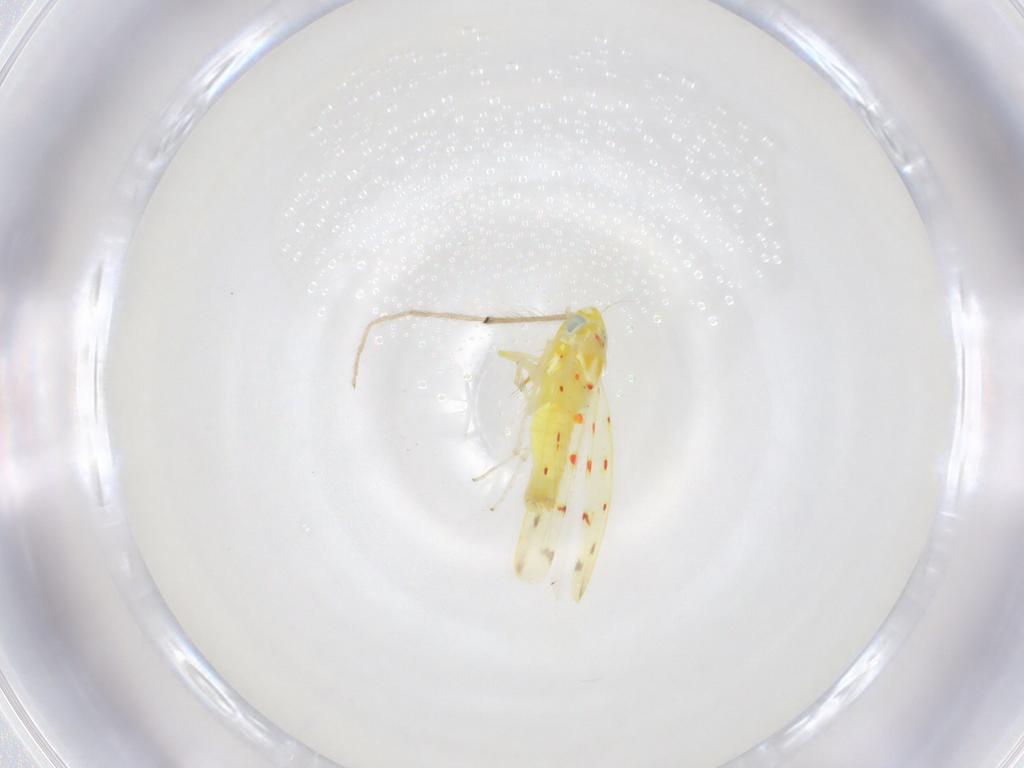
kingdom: Animalia
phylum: Arthropoda
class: Insecta
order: Hemiptera
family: Cicadellidae
